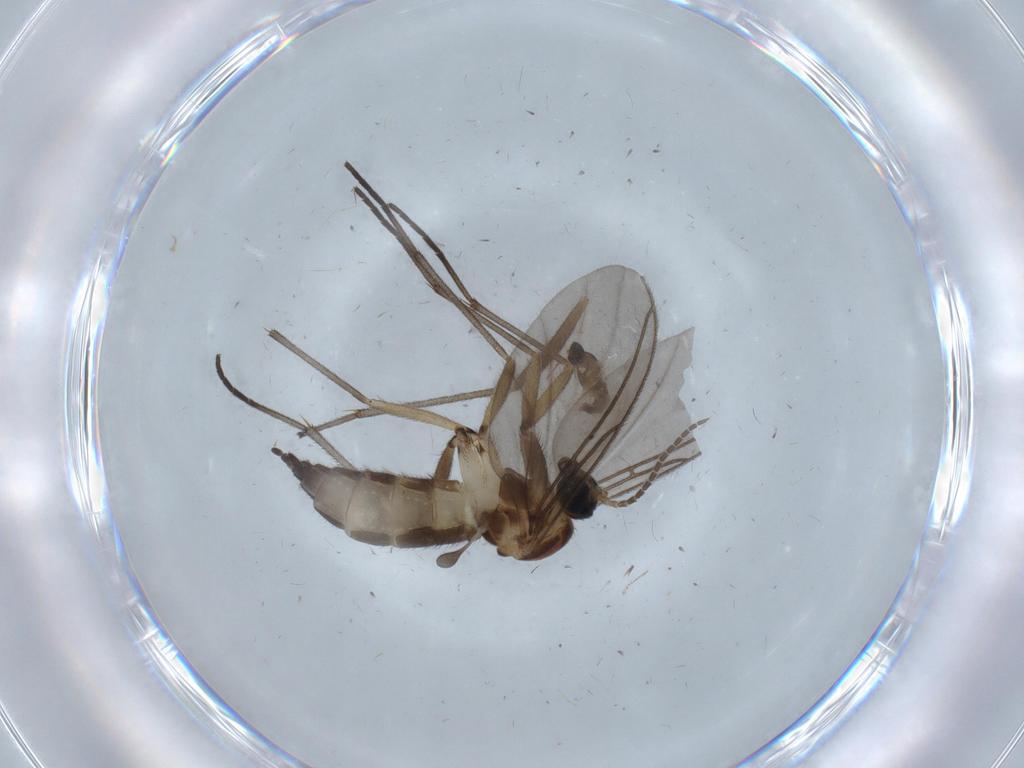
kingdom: Animalia
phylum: Arthropoda
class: Insecta
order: Diptera
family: Sciaridae
